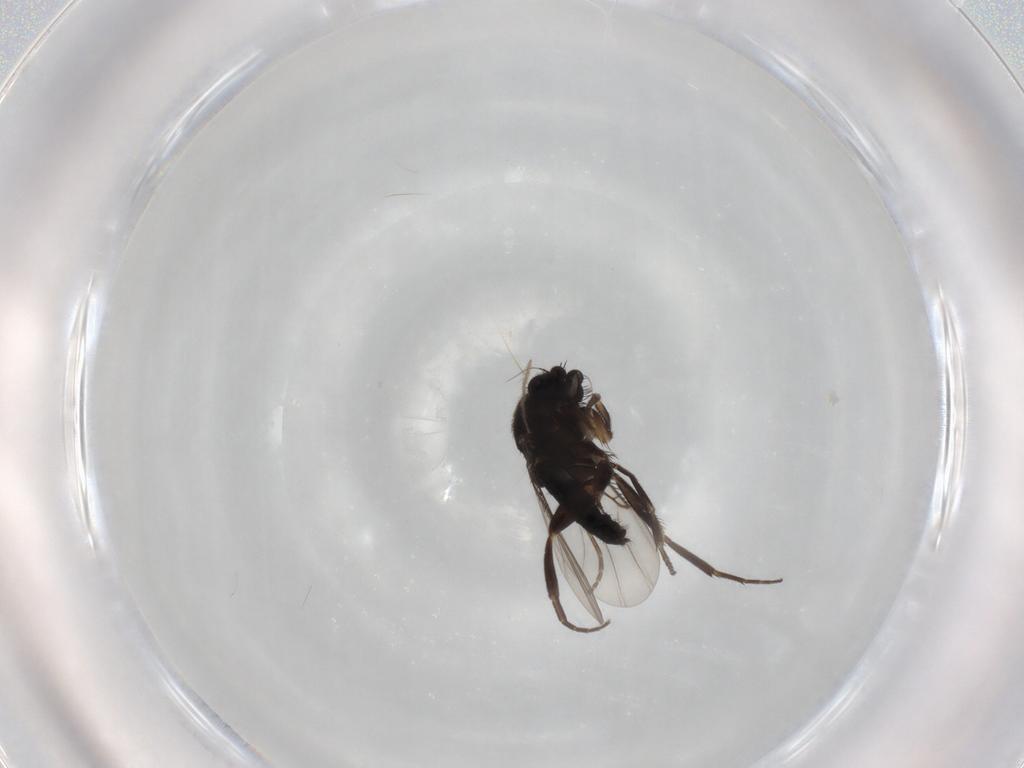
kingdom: Animalia
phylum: Arthropoda
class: Insecta
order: Diptera
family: Phoridae
